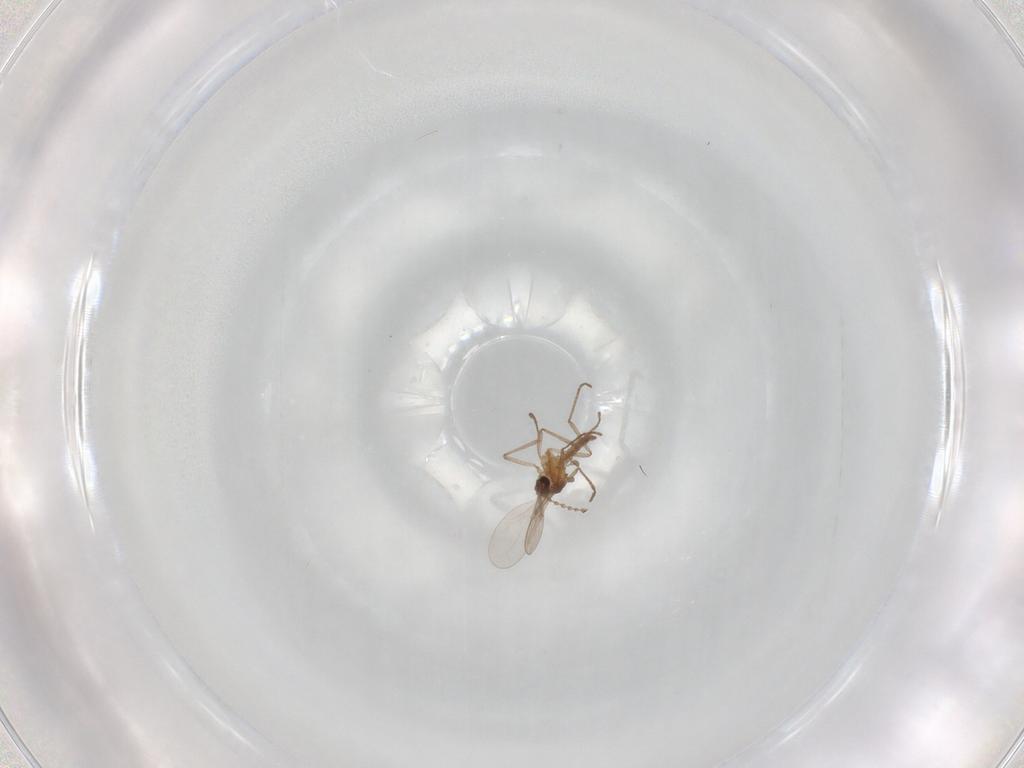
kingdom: Animalia
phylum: Arthropoda
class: Insecta
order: Diptera
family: Cecidomyiidae
